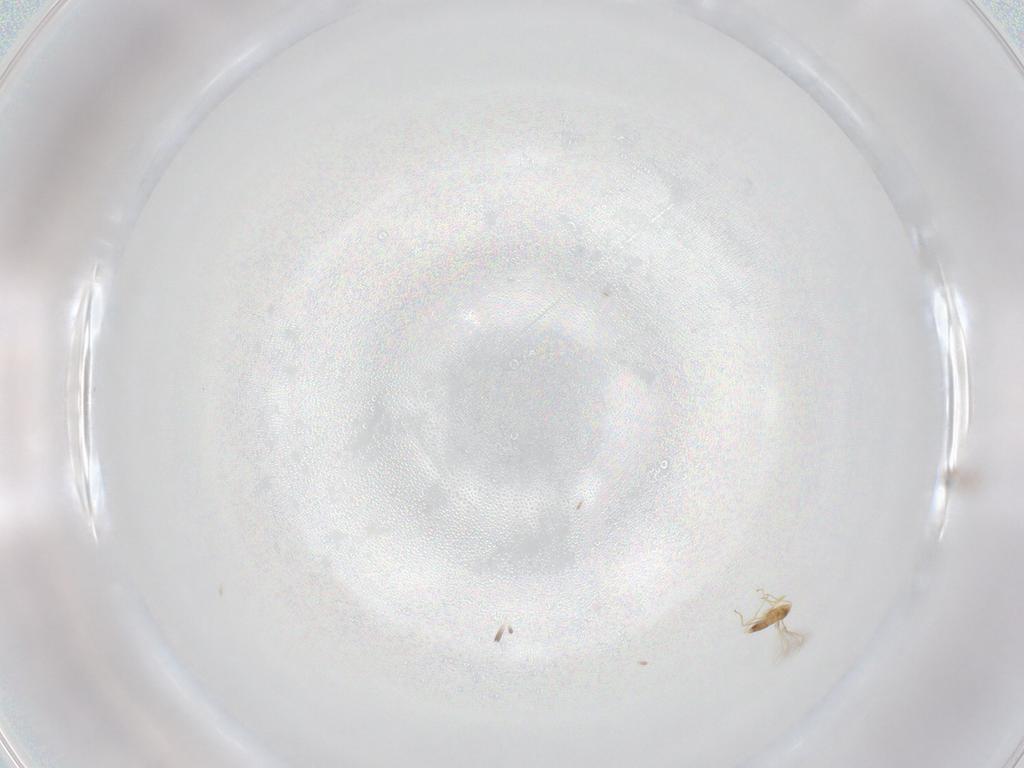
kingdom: Animalia
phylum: Arthropoda
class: Insecta
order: Hymenoptera
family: Mymaridae
